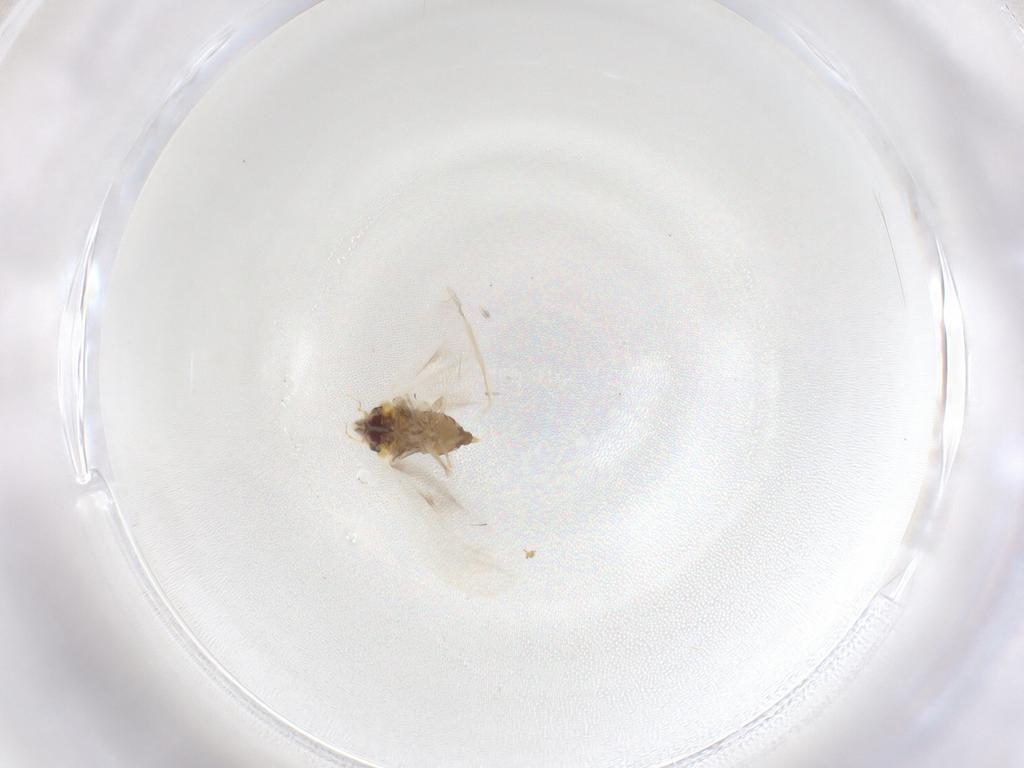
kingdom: Animalia
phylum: Arthropoda
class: Insecta
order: Hemiptera
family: Aleyrodidae
